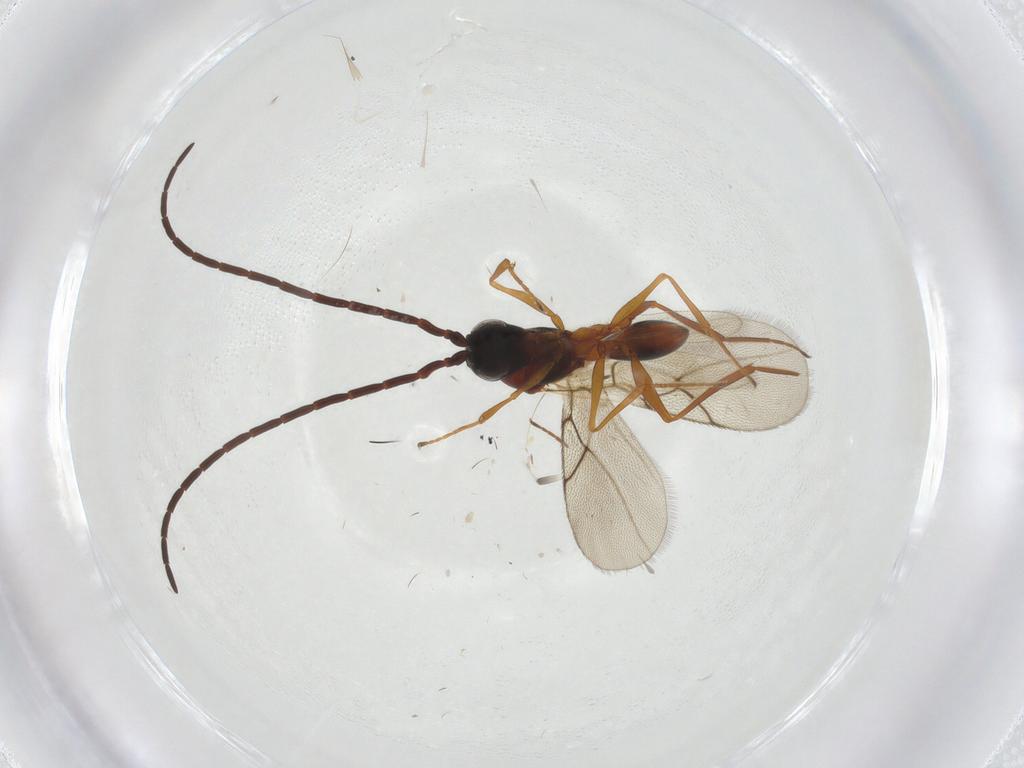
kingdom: Animalia
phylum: Arthropoda
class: Insecta
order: Hymenoptera
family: Figitidae
